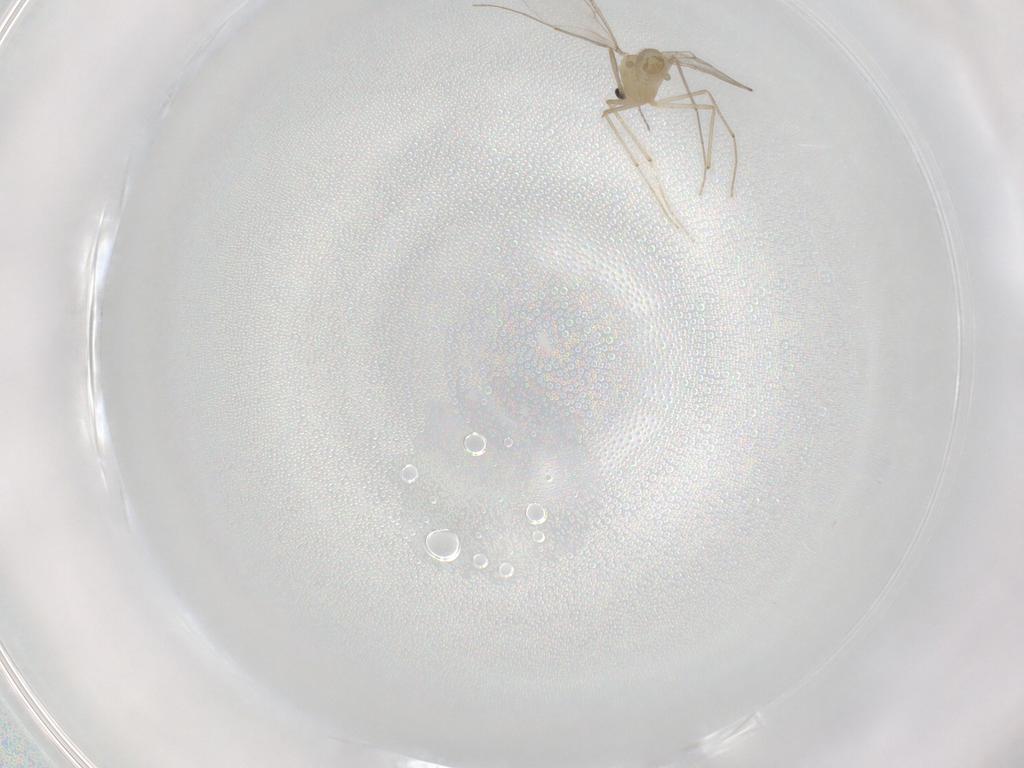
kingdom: Animalia
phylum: Arthropoda
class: Insecta
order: Diptera
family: Chironomidae
